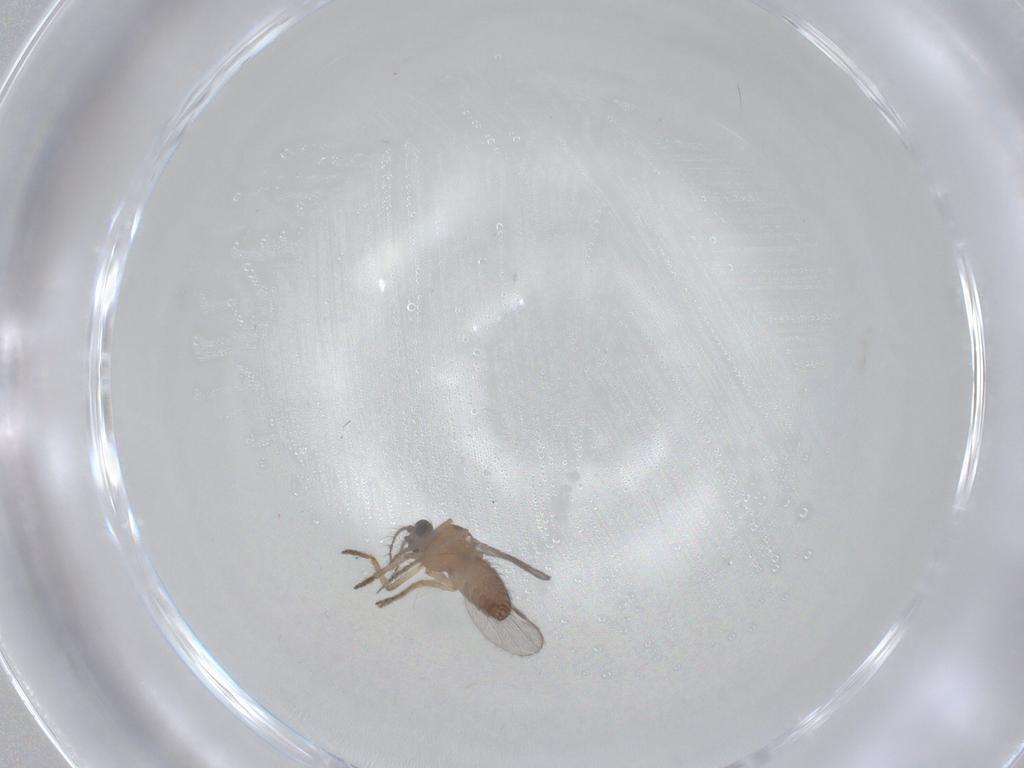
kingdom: Animalia
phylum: Arthropoda
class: Insecta
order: Diptera
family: Ceratopogonidae
